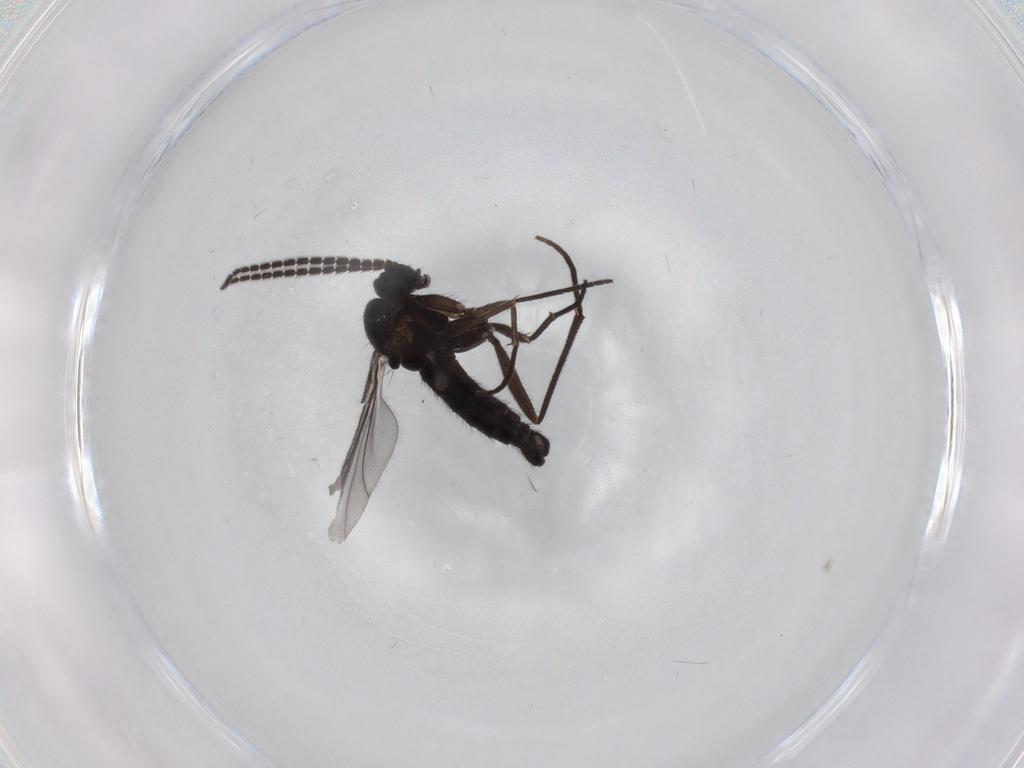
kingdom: Animalia
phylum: Arthropoda
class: Insecta
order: Diptera
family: Sciaridae
